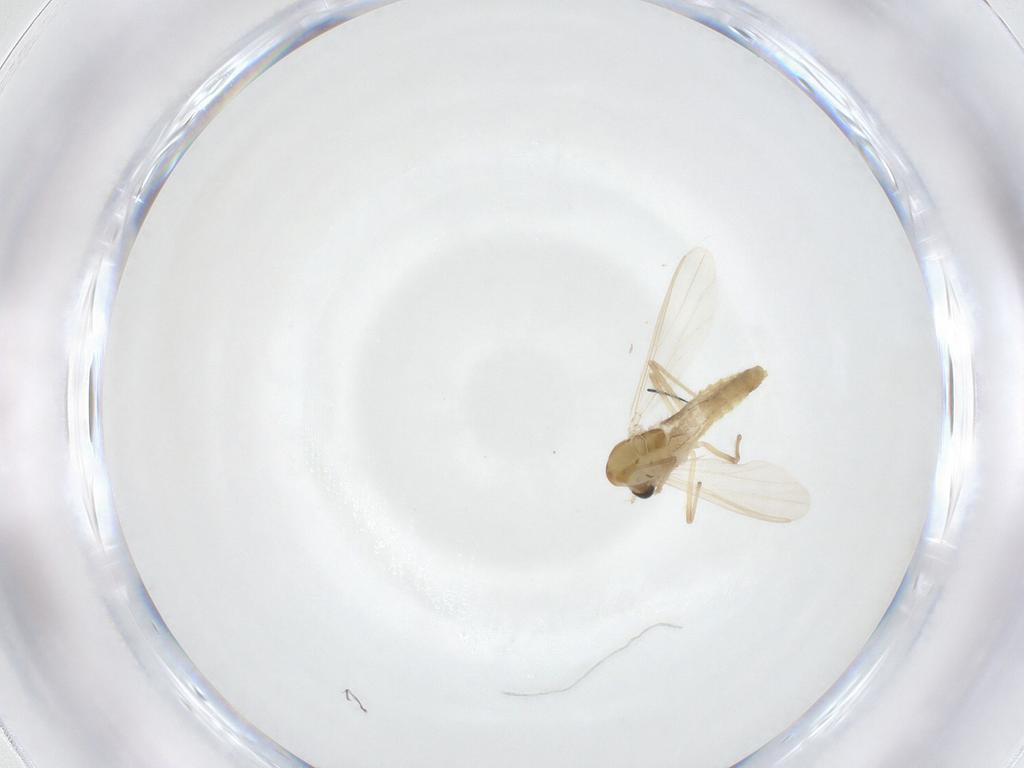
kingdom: Animalia
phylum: Arthropoda
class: Insecta
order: Diptera
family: Chironomidae
